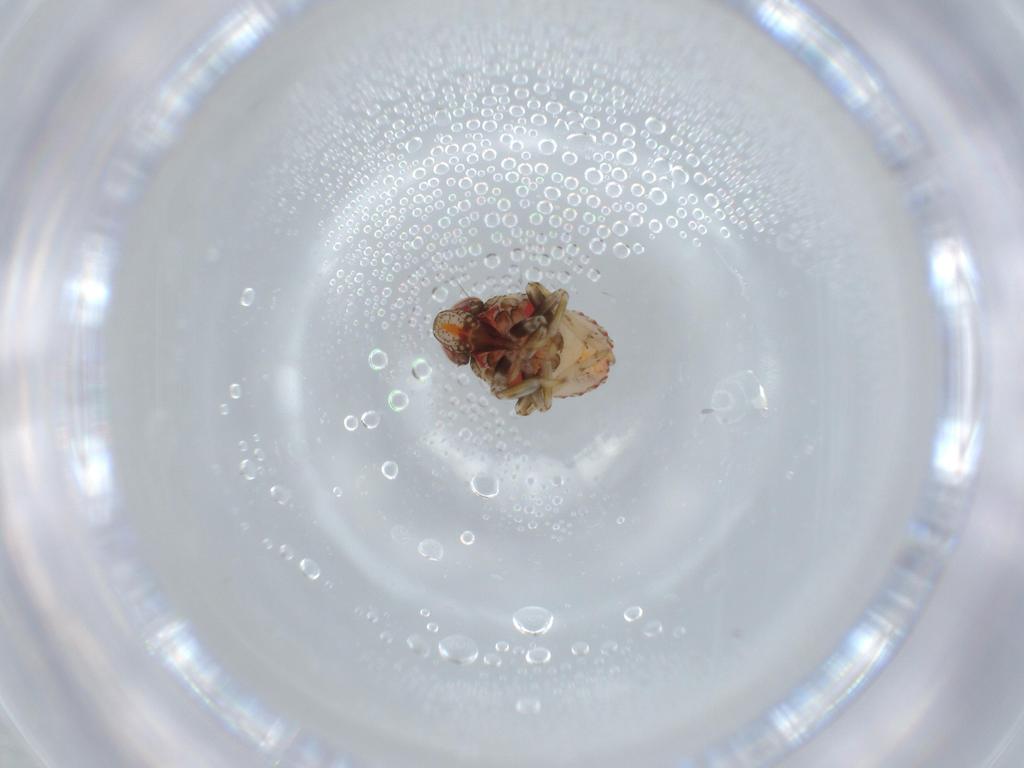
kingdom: Animalia
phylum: Arthropoda
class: Insecta
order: Hemiptera
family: Issidae
